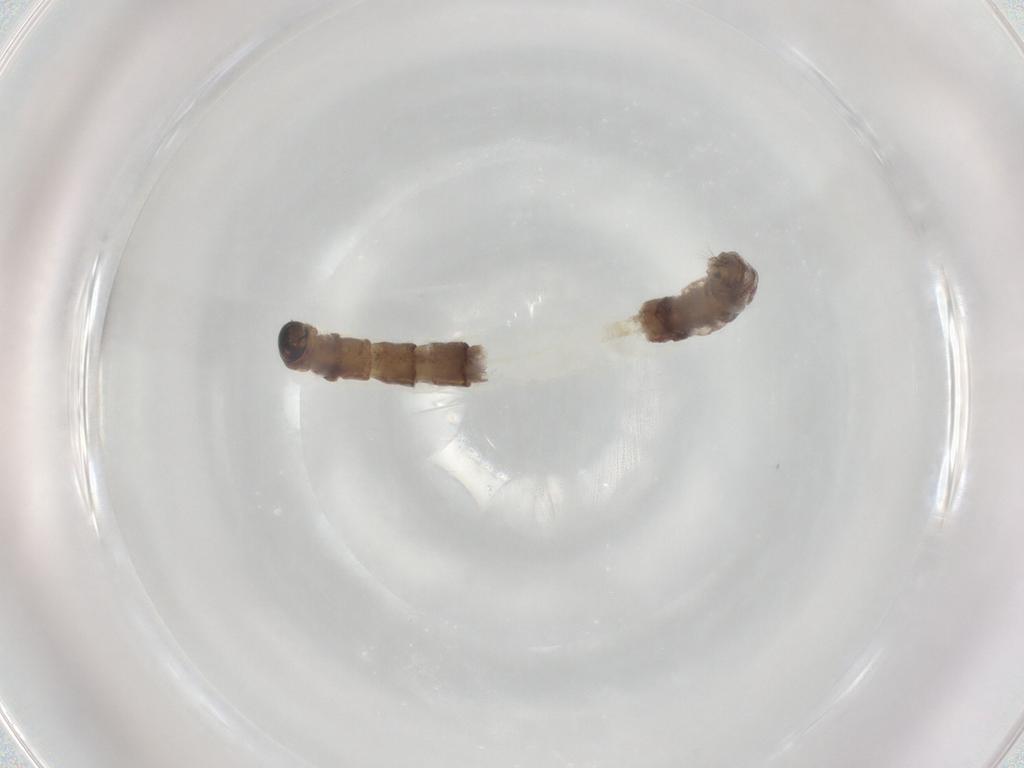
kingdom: Animalia
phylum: Arthropoda
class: Insecta
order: Diptera
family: Chironomidae
